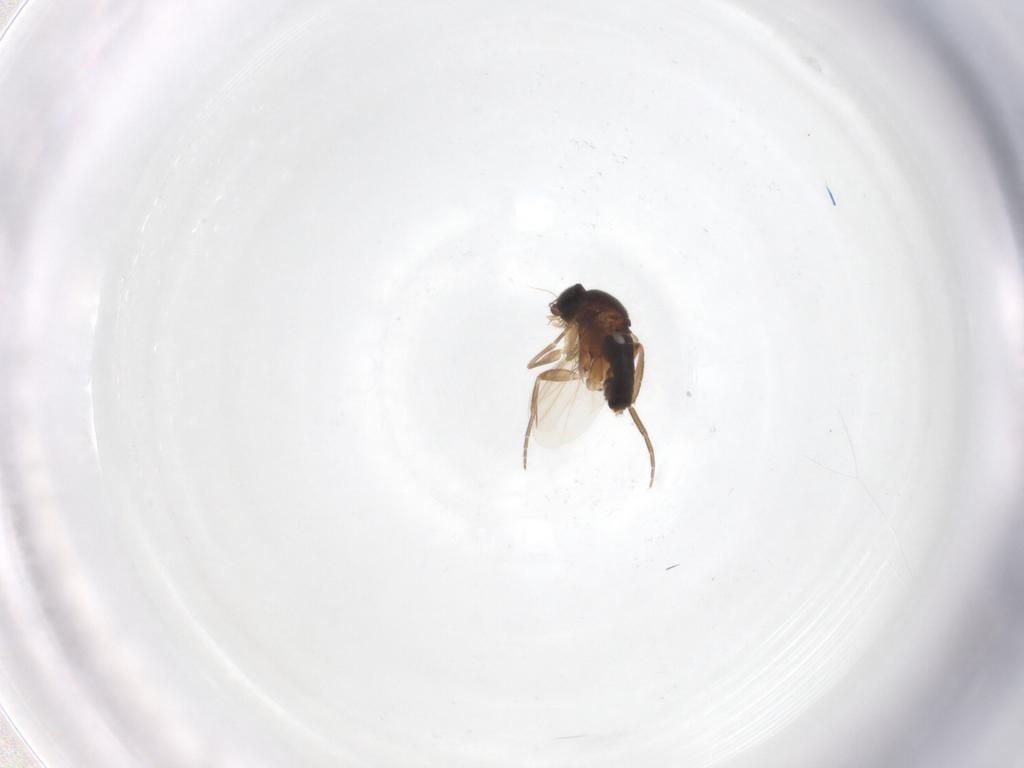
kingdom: Animalia
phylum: Arthropoda
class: Insecta
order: Diptera
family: Phoridae
